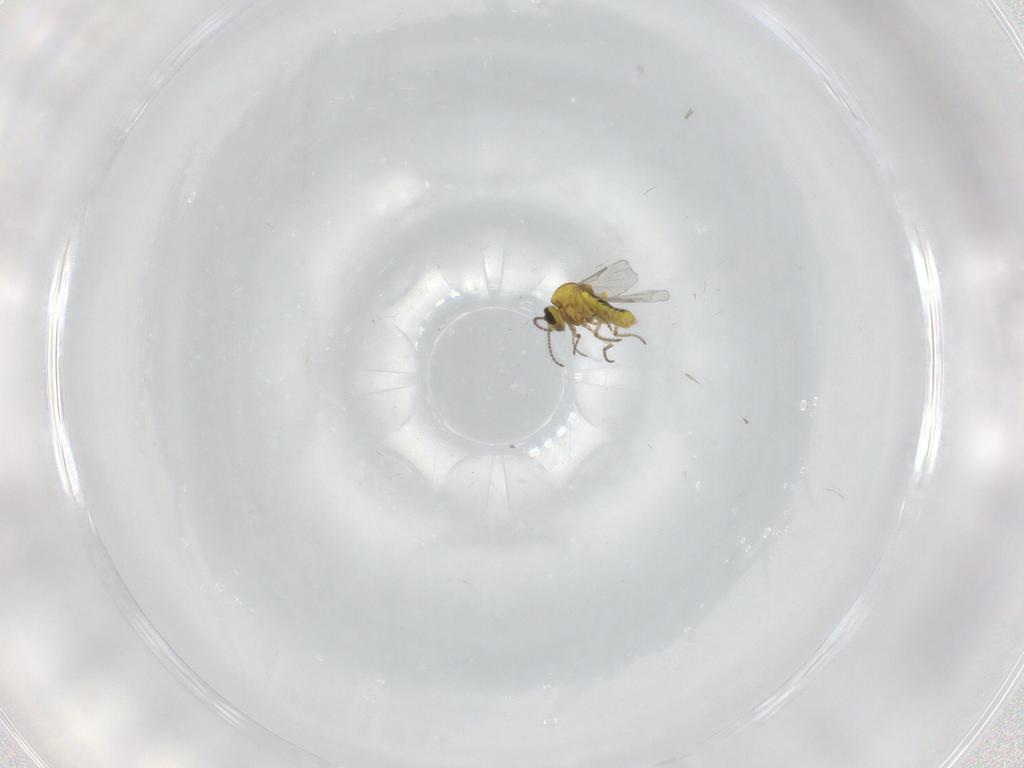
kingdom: Animalia
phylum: Arthropoda
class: Insecta
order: Diptera
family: Ceratopogonidae
